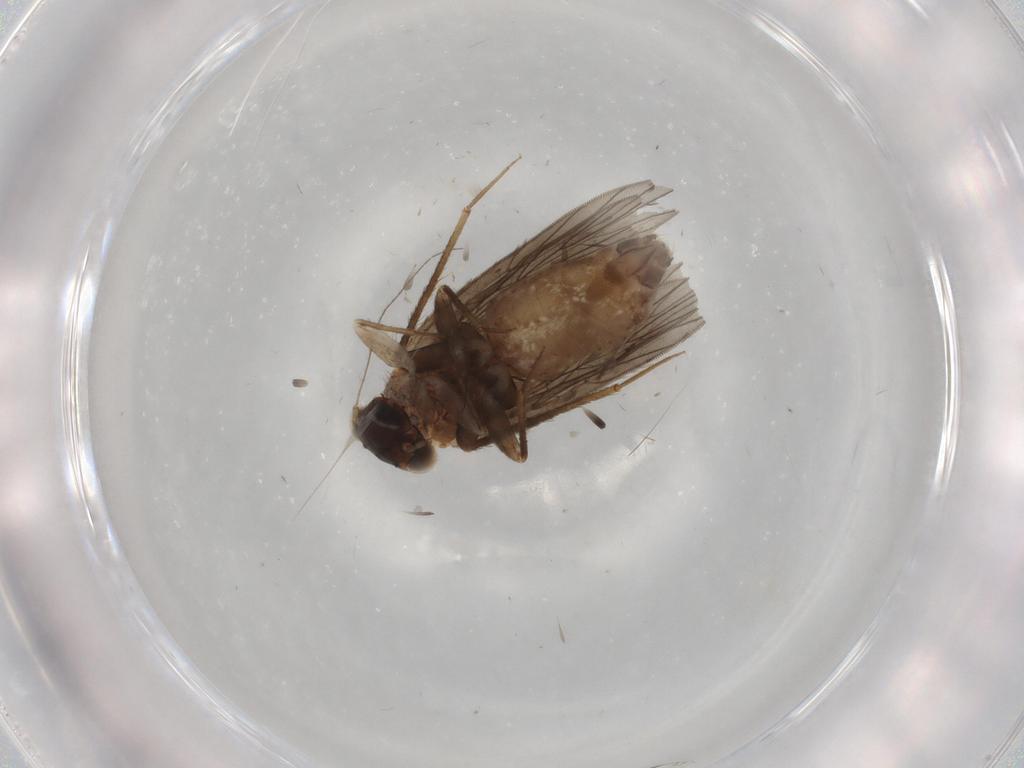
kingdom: Animalia
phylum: Arthropoda
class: Insecta
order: Psocodea
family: Lepidopsocidae
